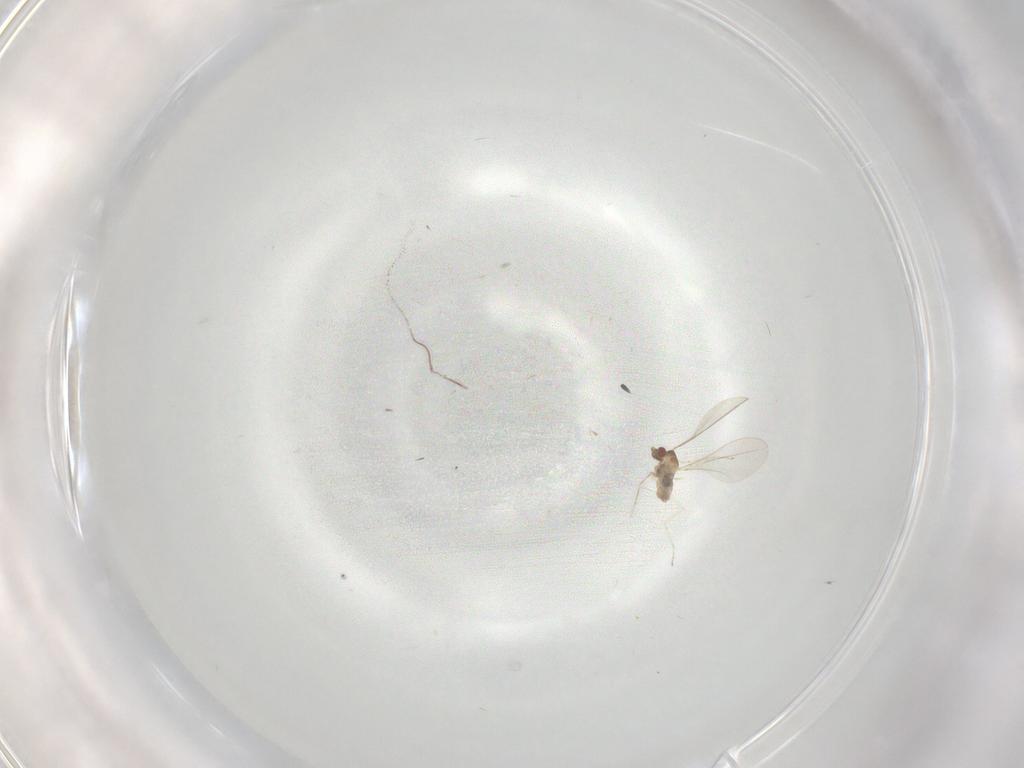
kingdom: Animalia
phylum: Arthropoda
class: Insecta
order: Diptera
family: Cecidomyiidae
